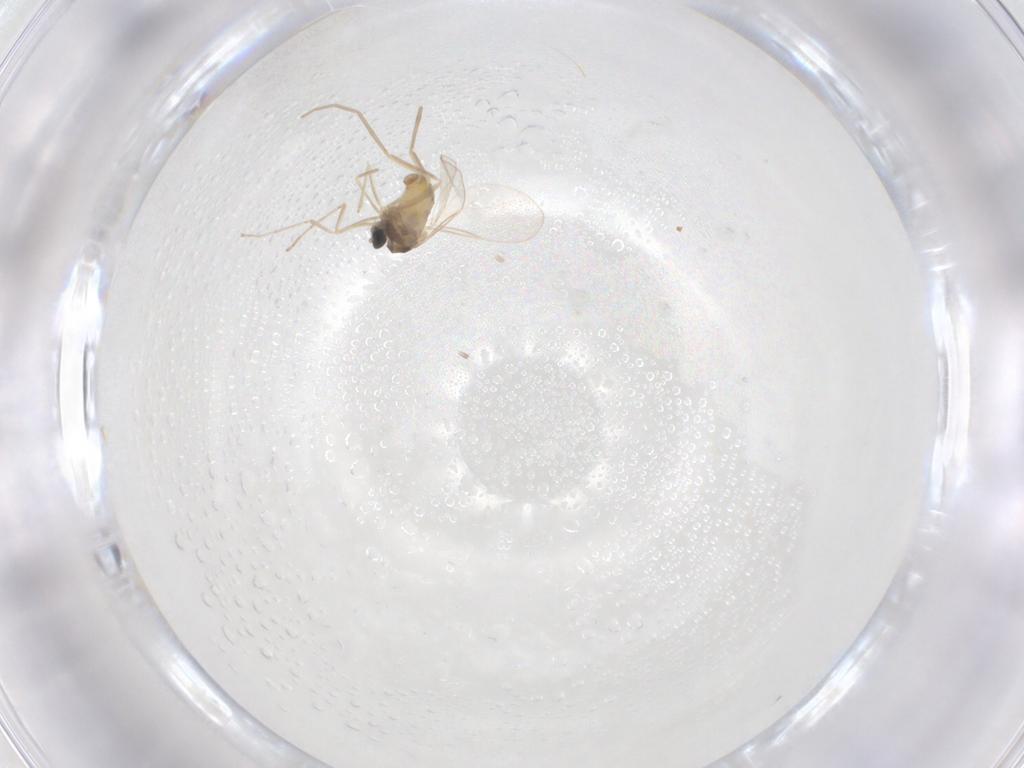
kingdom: Animalia
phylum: Arthropoda
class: Insecta
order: Diptera
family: Cecidomyiidae
